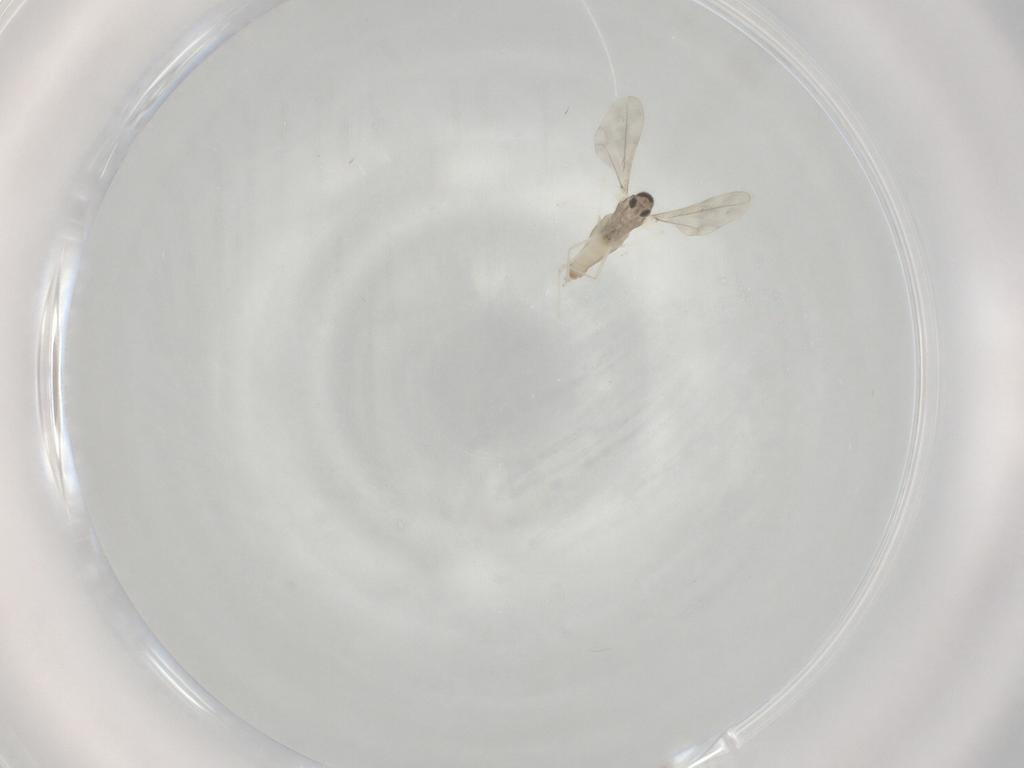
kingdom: Animalia
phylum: Arthropoda
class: Insecta
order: Diptera
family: Cecidomyiidae
